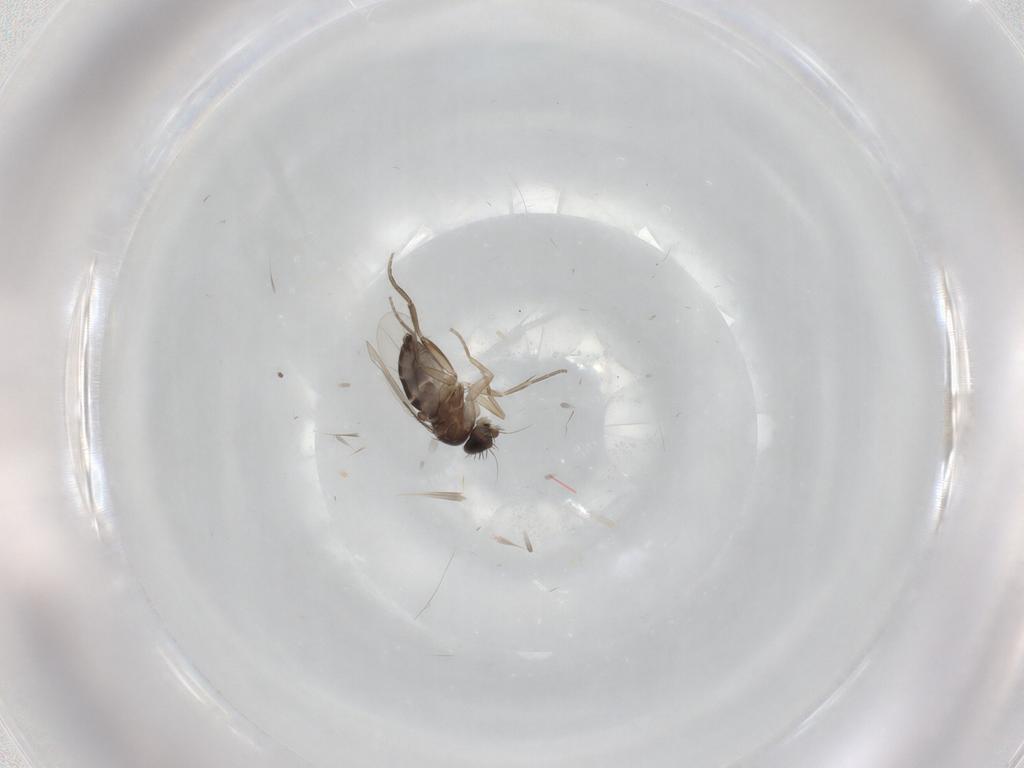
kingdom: Animalia
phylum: Arthropoda
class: Insecta
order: Diptera
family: Phoridae
